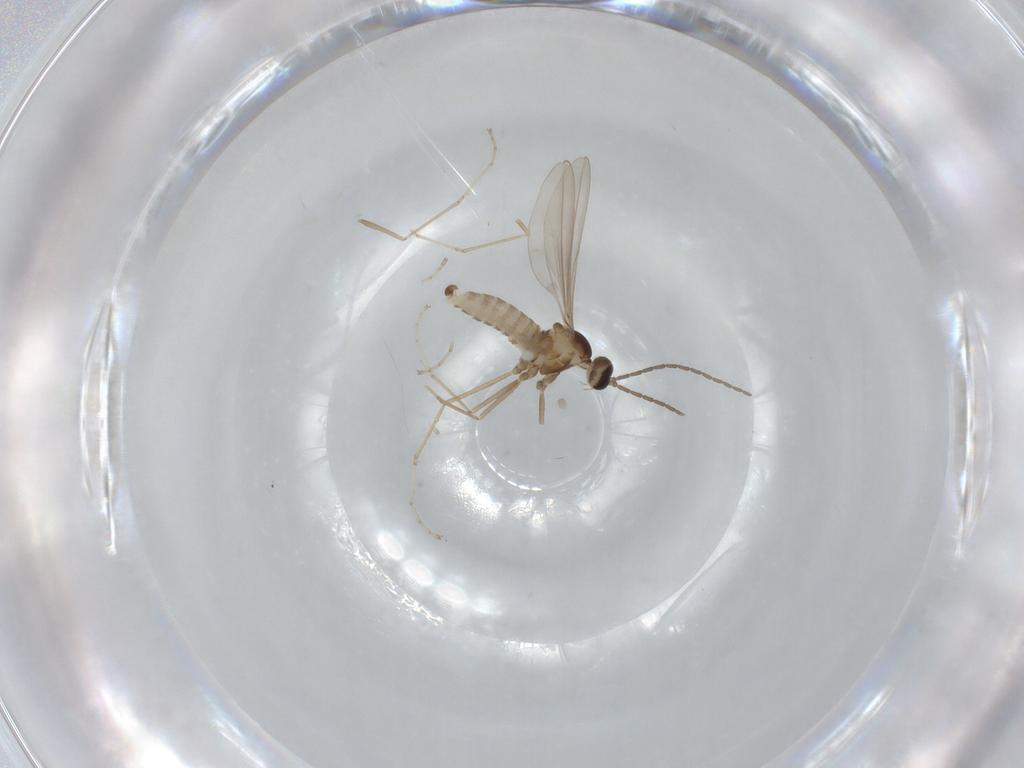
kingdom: Animalia
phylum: Arthropoda
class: Insecta
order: Diptera
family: Cecidomyiidae
